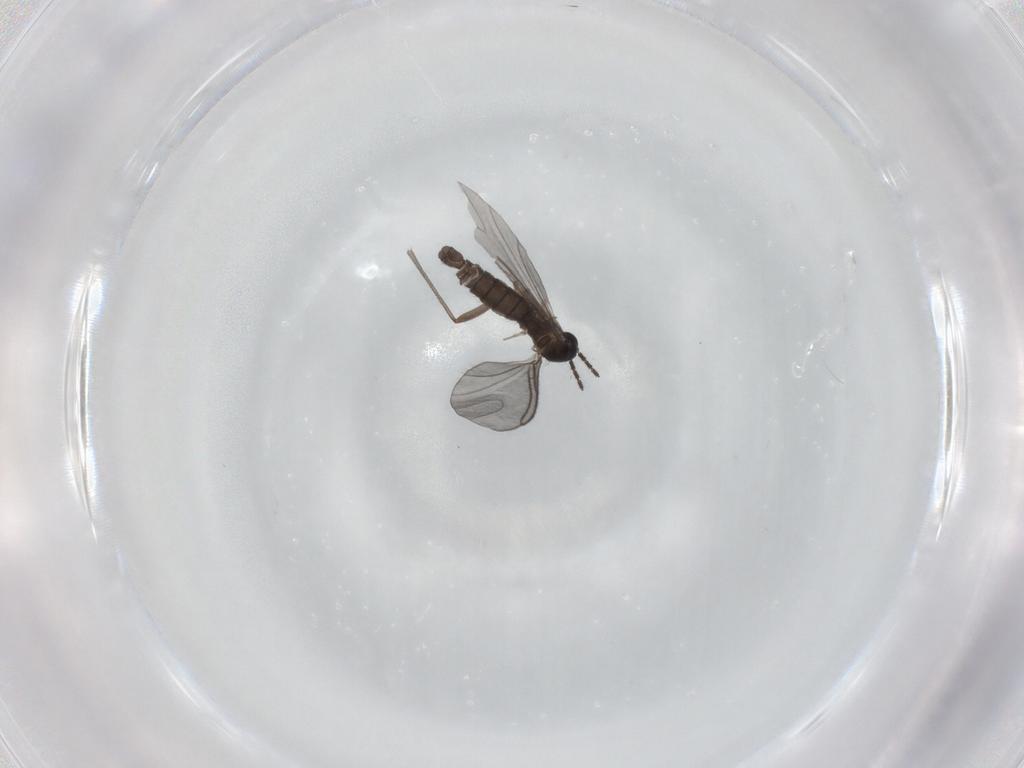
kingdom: Animalia
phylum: Arthropoda
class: Insecta
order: Diptera
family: Sciaridae
